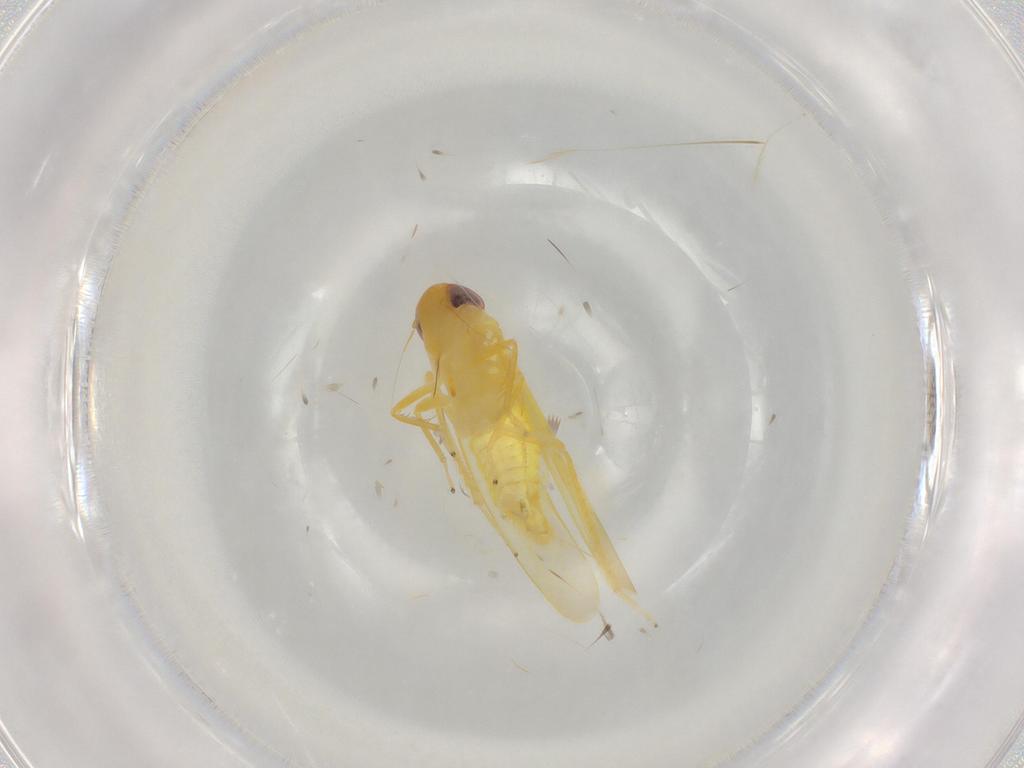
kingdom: Animalia
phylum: Arthropoda
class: Insecta
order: Hemiptera
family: Cicadellidae
